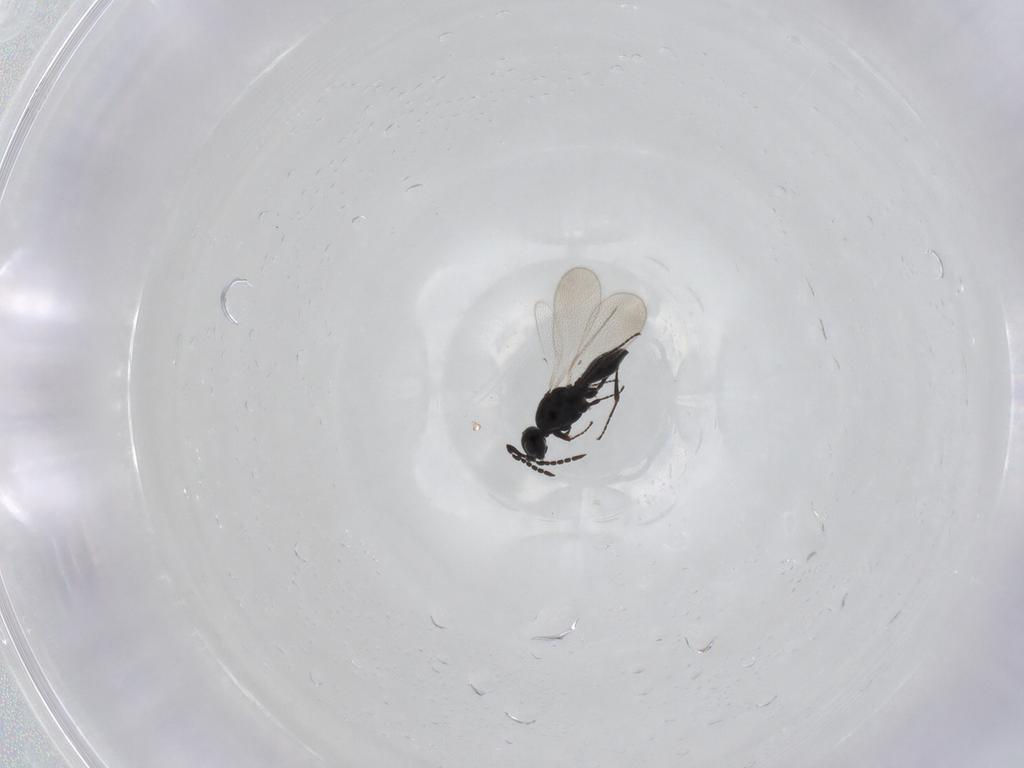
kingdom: Animalia
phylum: Arthropoda
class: Insecta
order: Hymenoptera
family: Platygastridae
